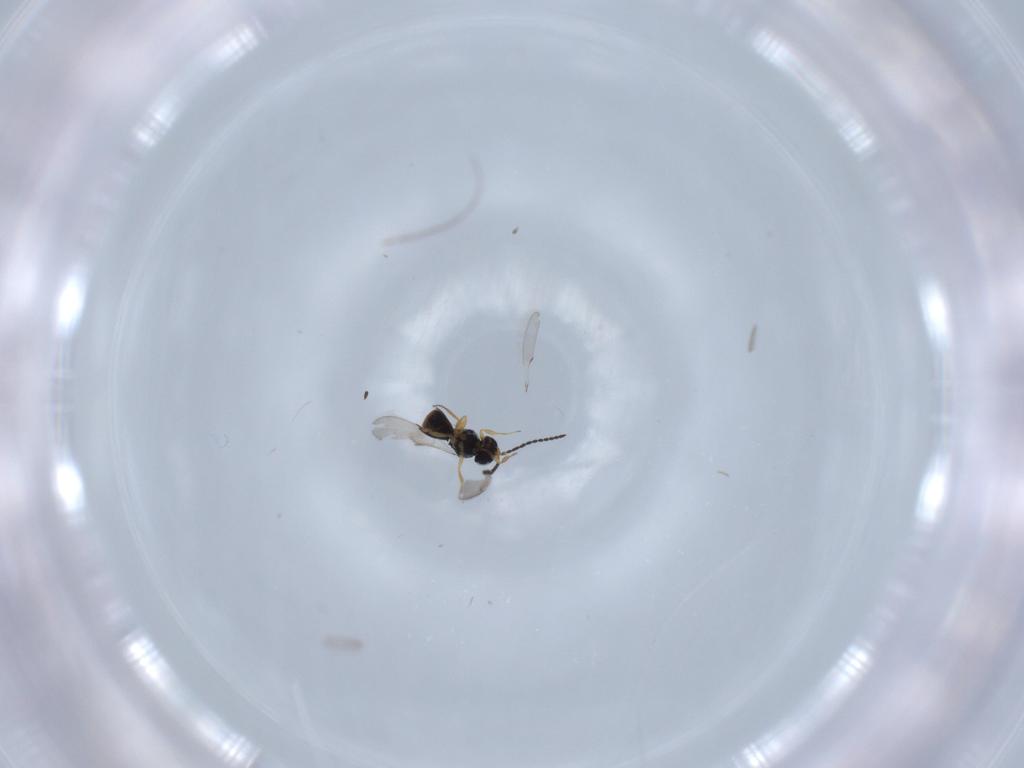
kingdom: Animalia
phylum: Arthropoda
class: Insecta
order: Hymenoptera
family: Scelionidae
